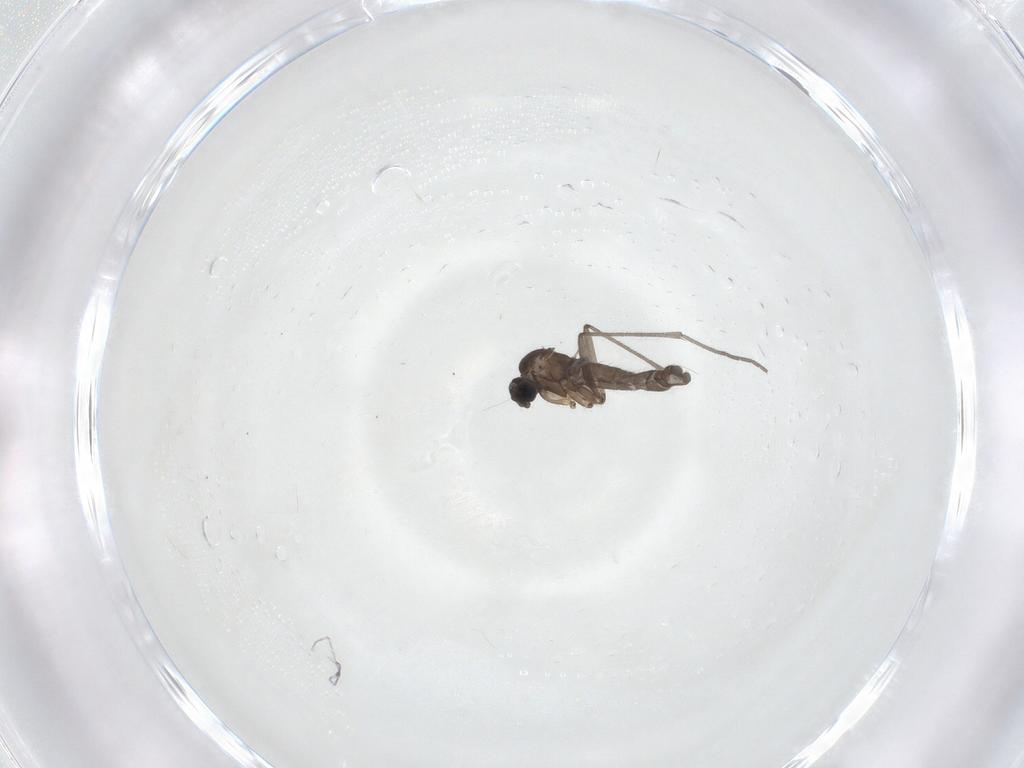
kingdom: Animalia
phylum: Arthropoda
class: Insecta
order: Diptera
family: Sciaridae
